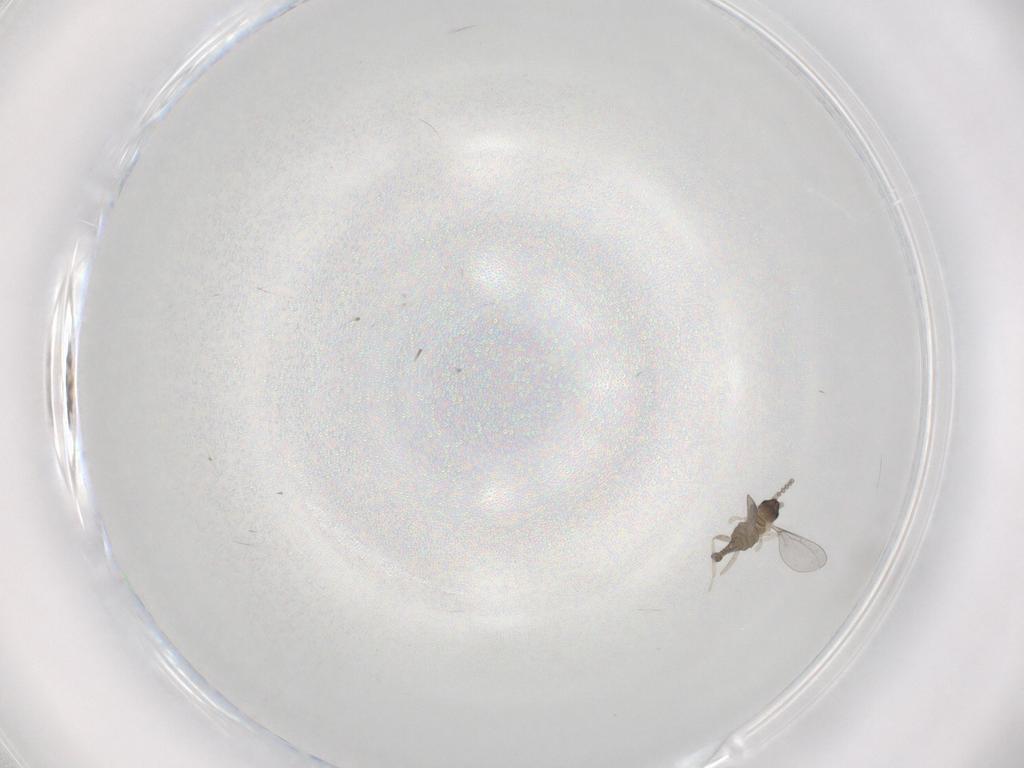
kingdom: Animalia
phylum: Arthropoda
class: Insecta
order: Diptera
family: Cecidomyiidae
